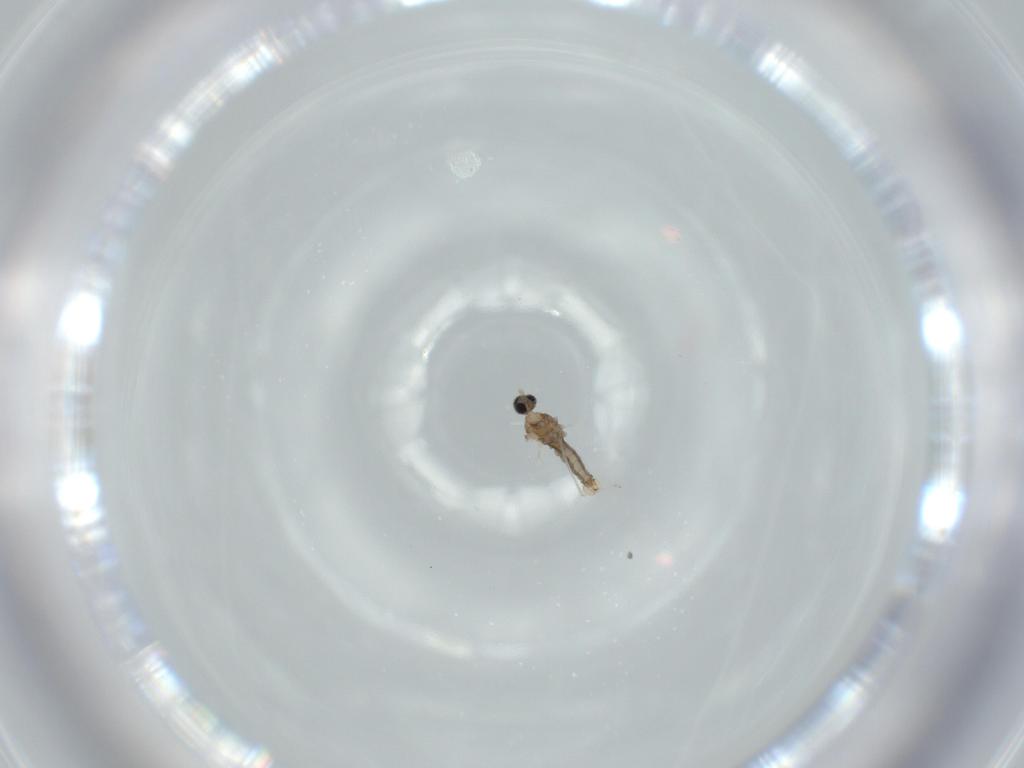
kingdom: Animalia
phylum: Arthropoda
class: Insecta
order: Diptera
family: Cecidomyiidae
